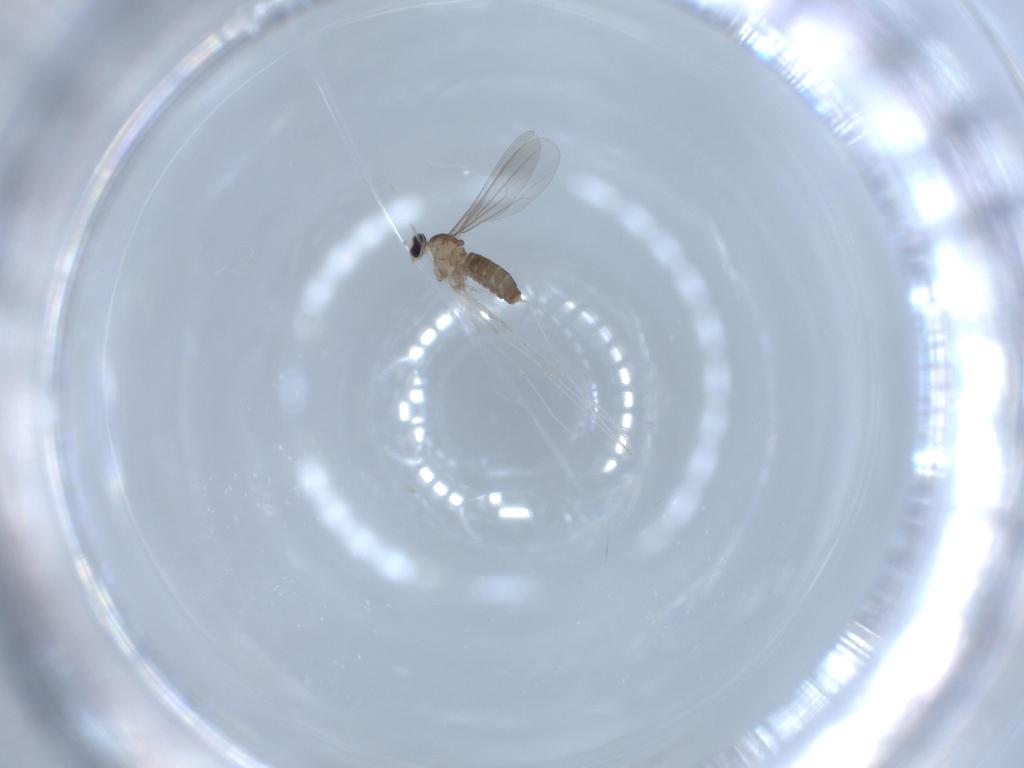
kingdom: Animalia
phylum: Arthropoda
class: Insecta
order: Diptera
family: Cecidomyiidae
